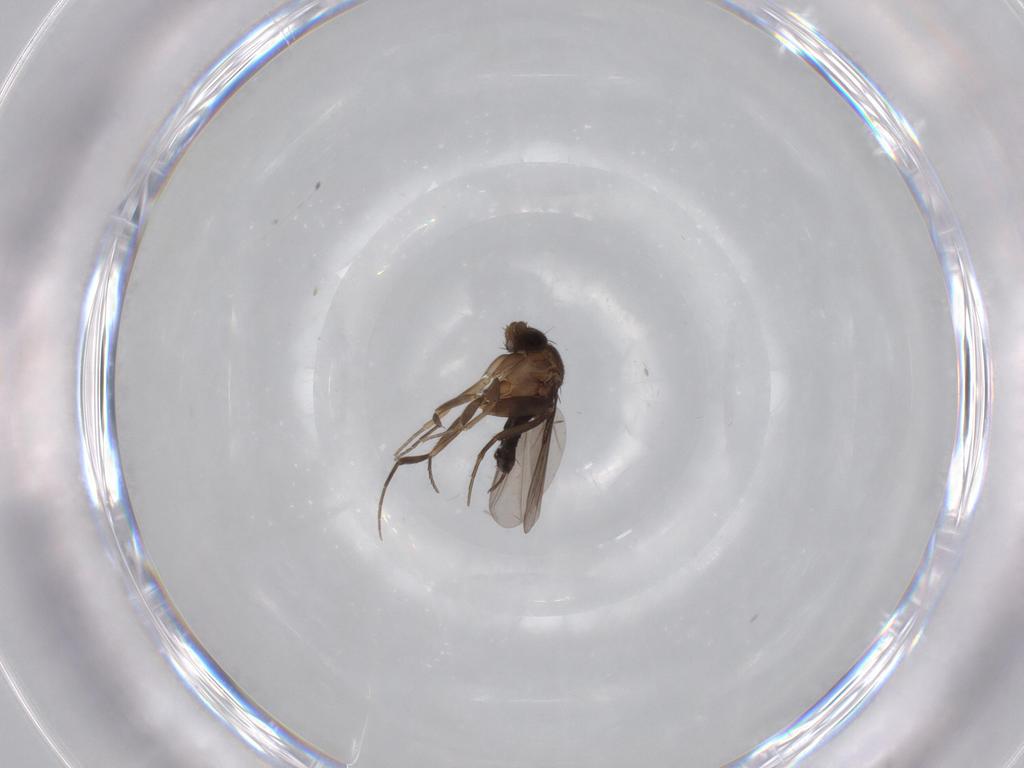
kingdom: Animalia
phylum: Arthropoda
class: Insecta
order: Diptera
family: Phoridae
